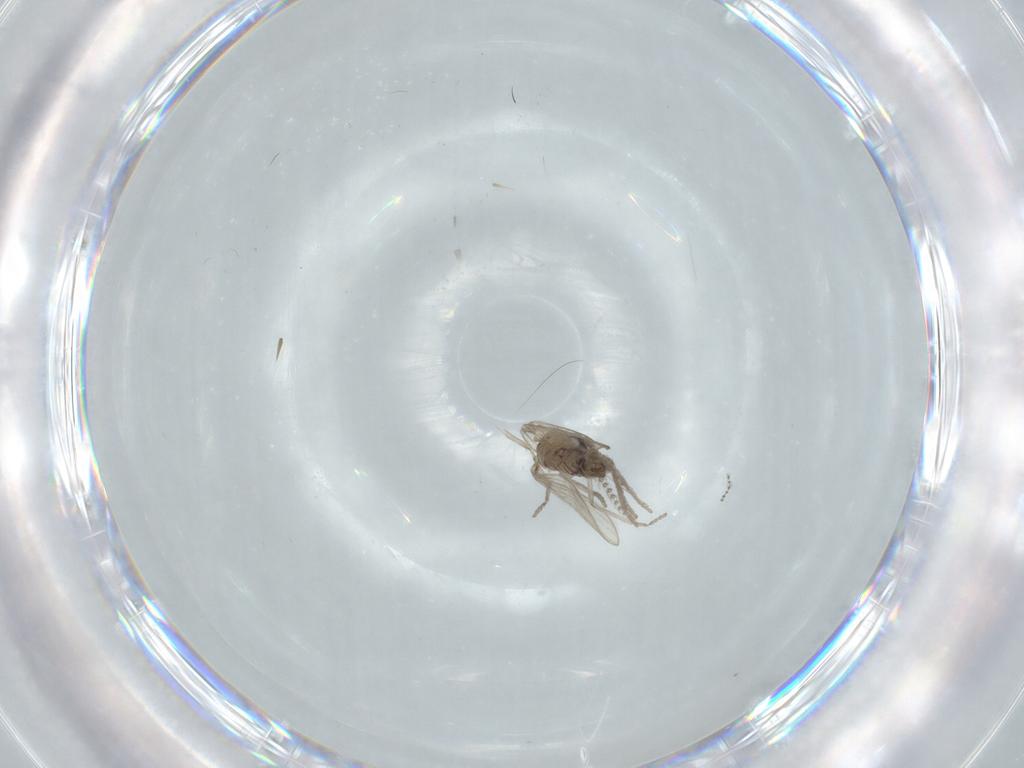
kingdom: Animalia
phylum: Arthropoda
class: Insecta
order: Diptera
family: Psychodidae
